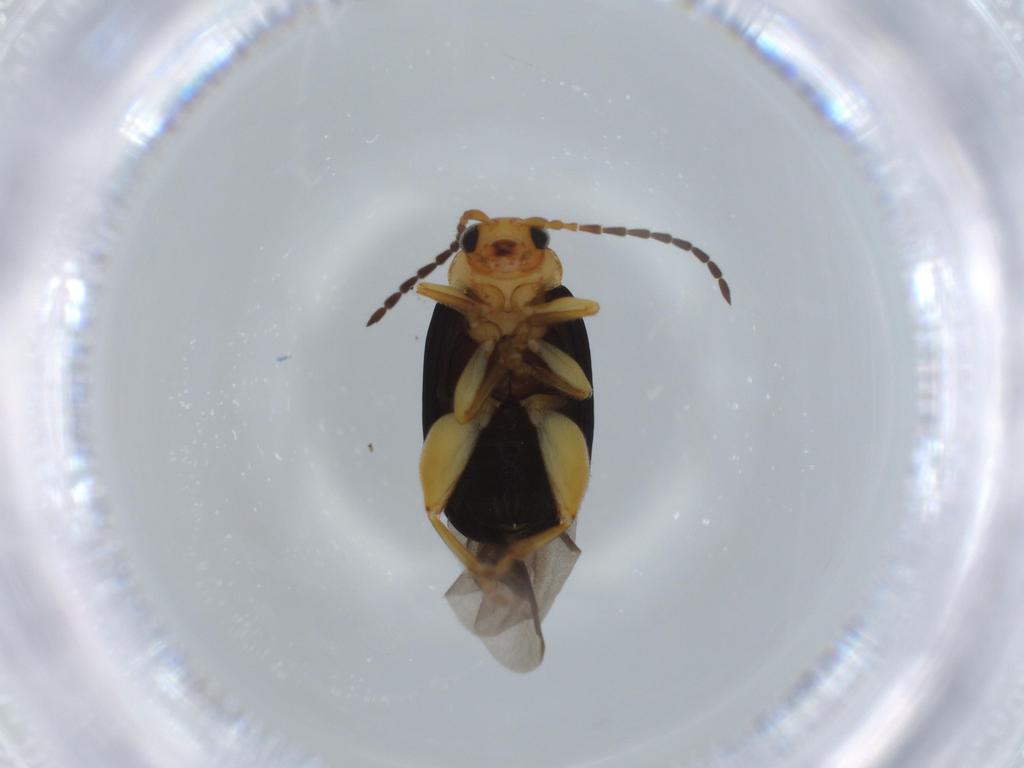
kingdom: Animalia
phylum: Arthropoda
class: Insecta
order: Coleoptera
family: Chrysomelidae
